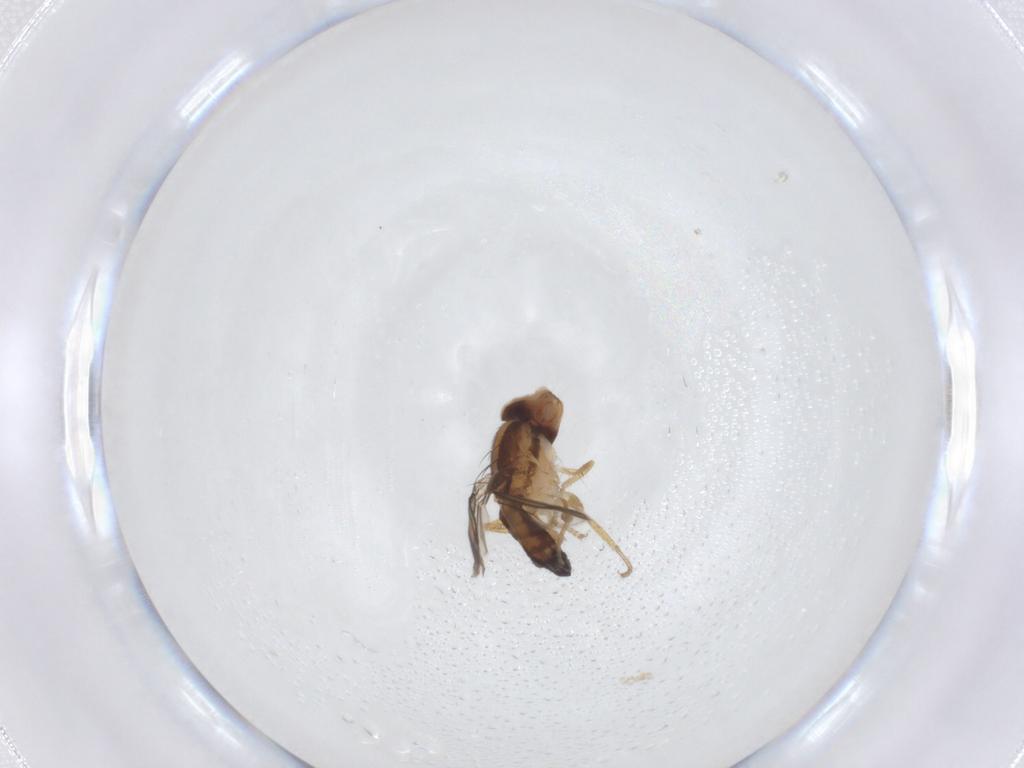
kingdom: Animalia
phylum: Arthropoda
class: Insecta
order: Diptera
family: Anthomyzidae
